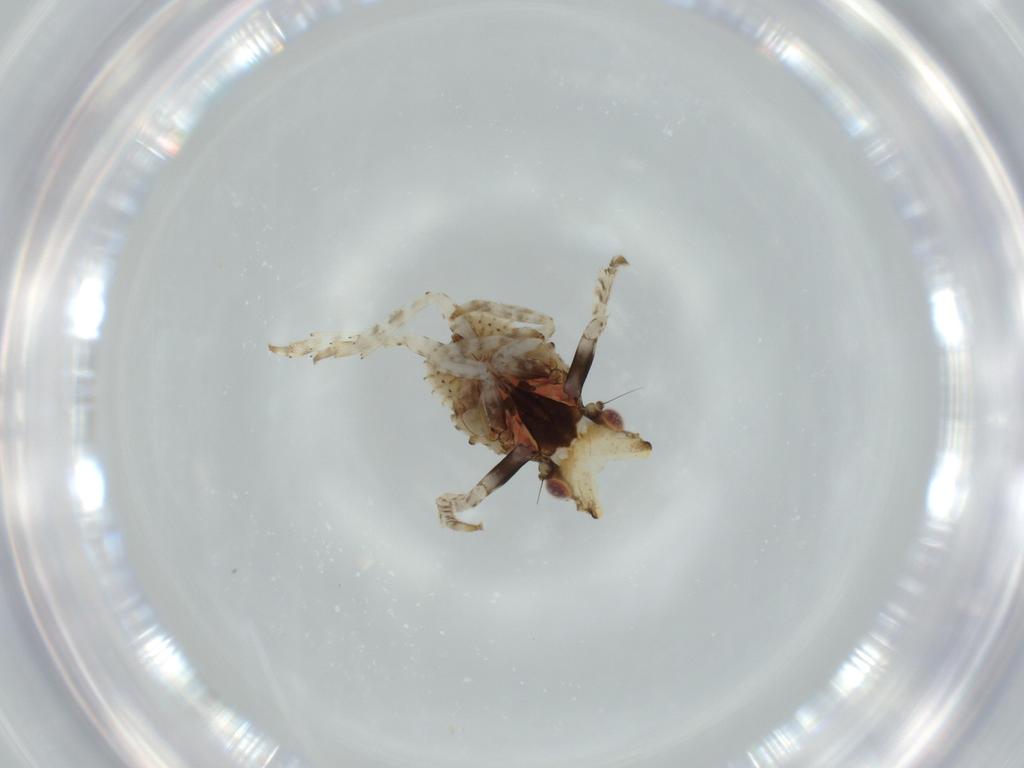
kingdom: Animalia
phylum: Arthropoda
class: Insecta
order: Hemiptera
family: Fulgoridae
